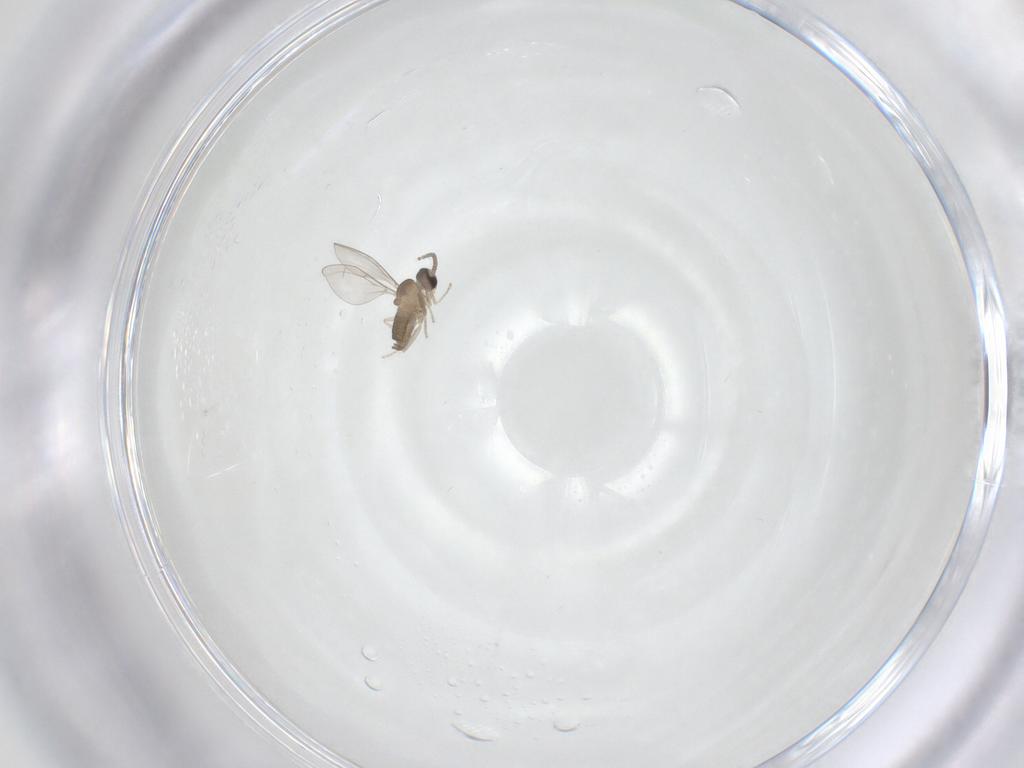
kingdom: Animalia
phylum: Arthropoda
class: Insecta
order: Diptera
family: Cecidomyiidae
